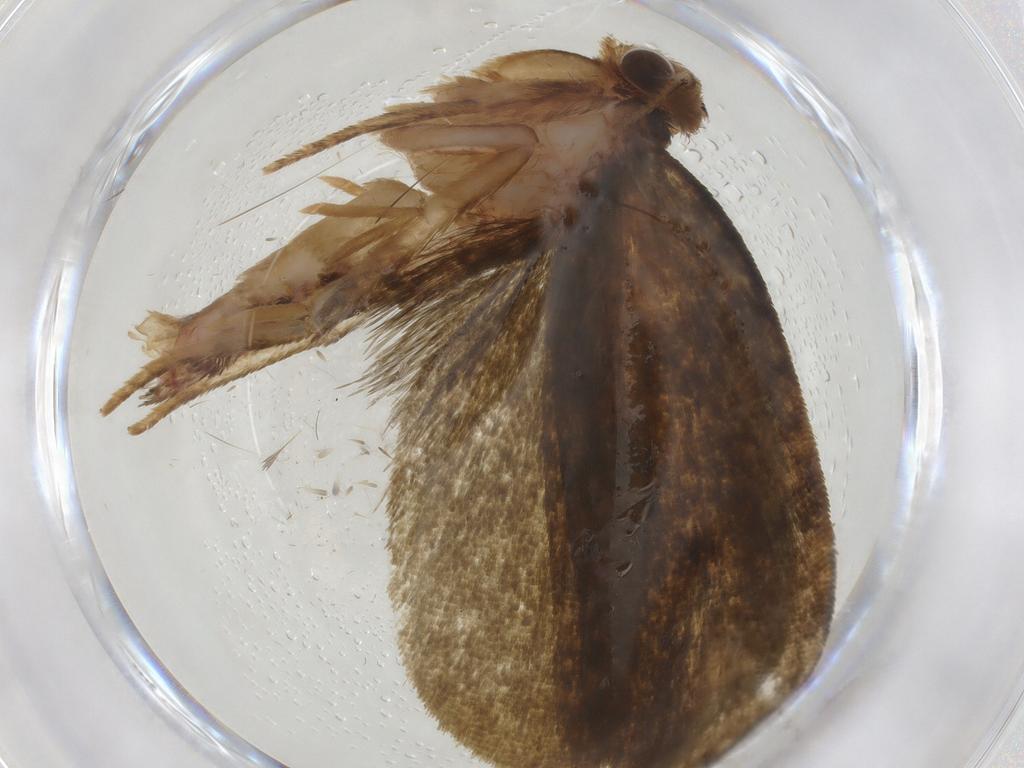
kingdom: Animalia
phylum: Arthropoda
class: Insecta
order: Lepidoptera
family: Geometridae
